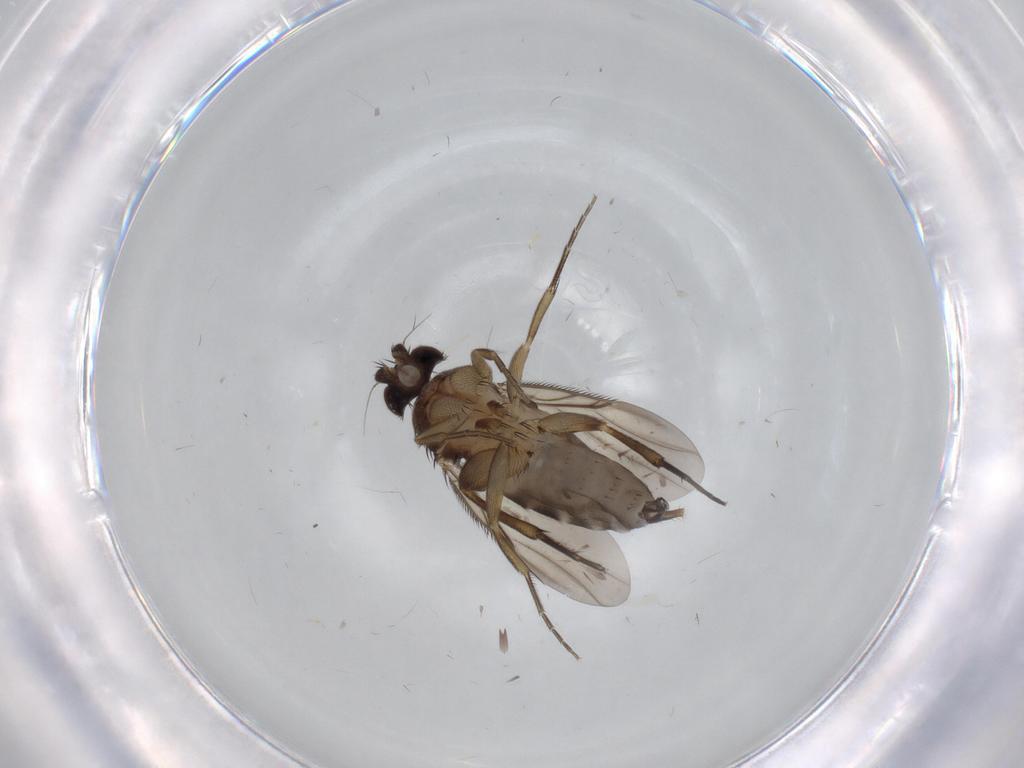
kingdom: Animalia
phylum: Arthropoda
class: Insecta
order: Diptera
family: Phoridae
